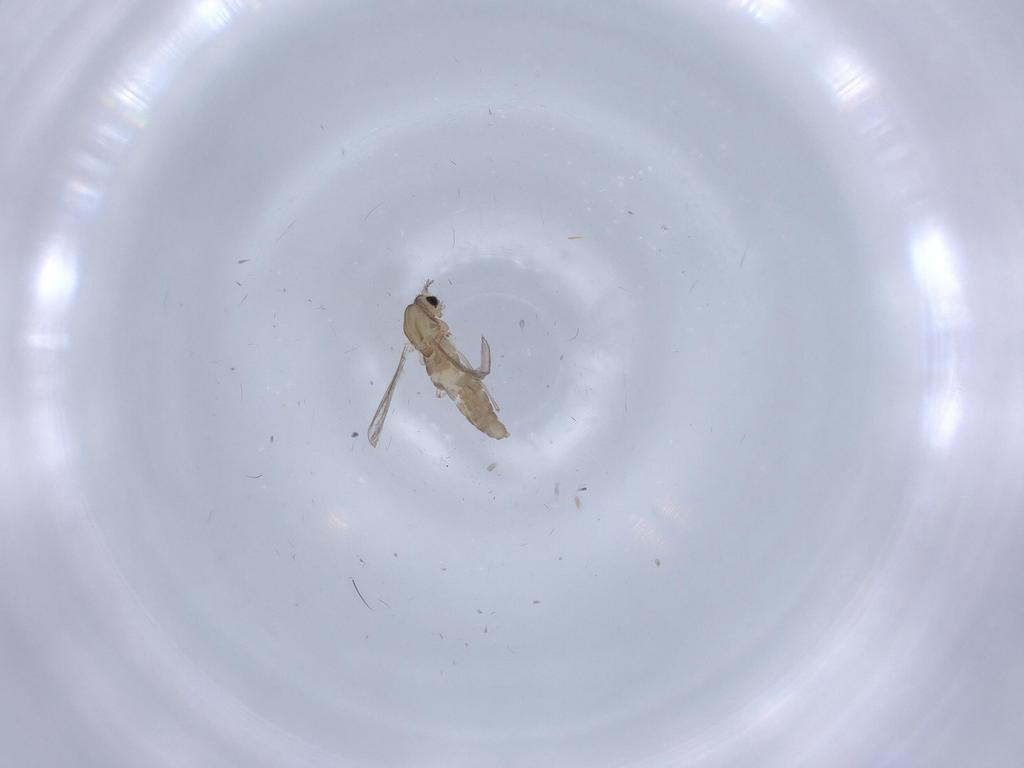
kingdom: Animalia
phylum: Arthropoda
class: Insecta
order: Diptera
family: Chironomidae
